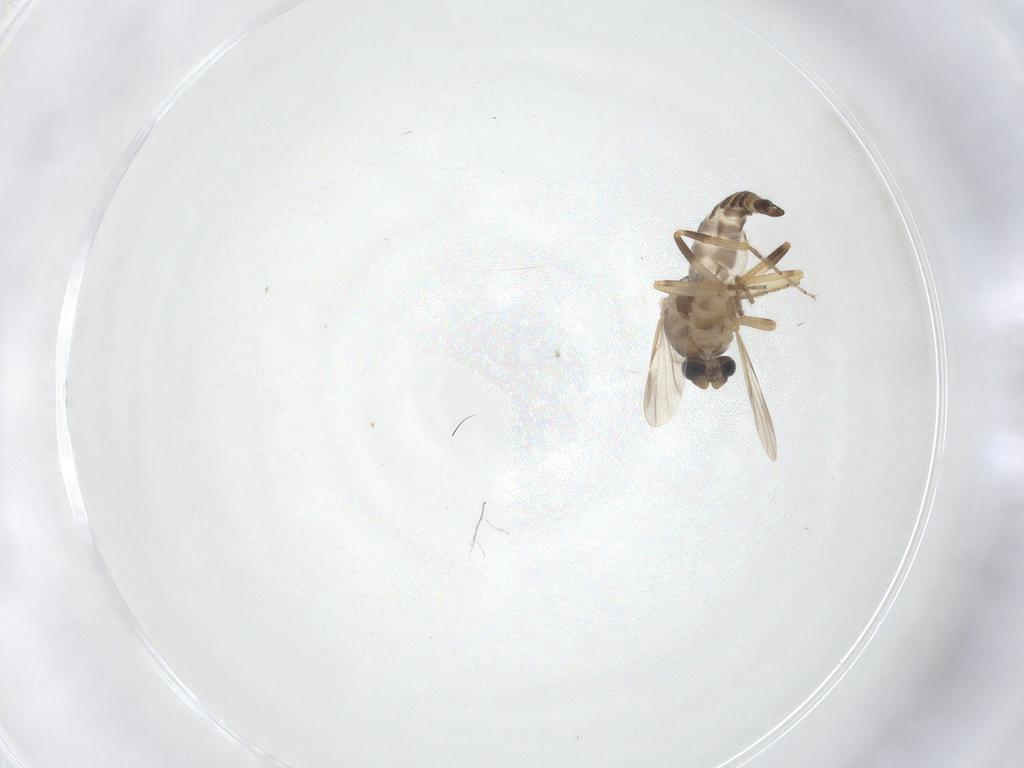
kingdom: Animalia
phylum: Arthropoda
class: Insecta
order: Diptera
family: Ceratopogonidae
